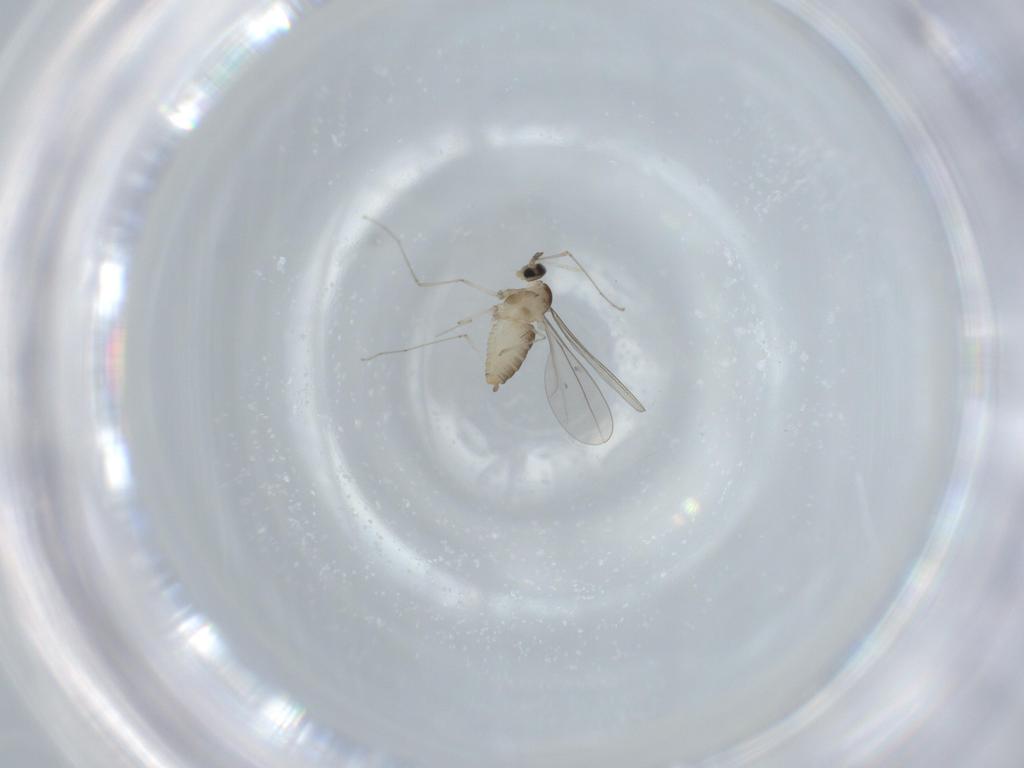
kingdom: Animalia
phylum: Arthropoda
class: Insecta
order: Diptera
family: Cecidomyiidae
